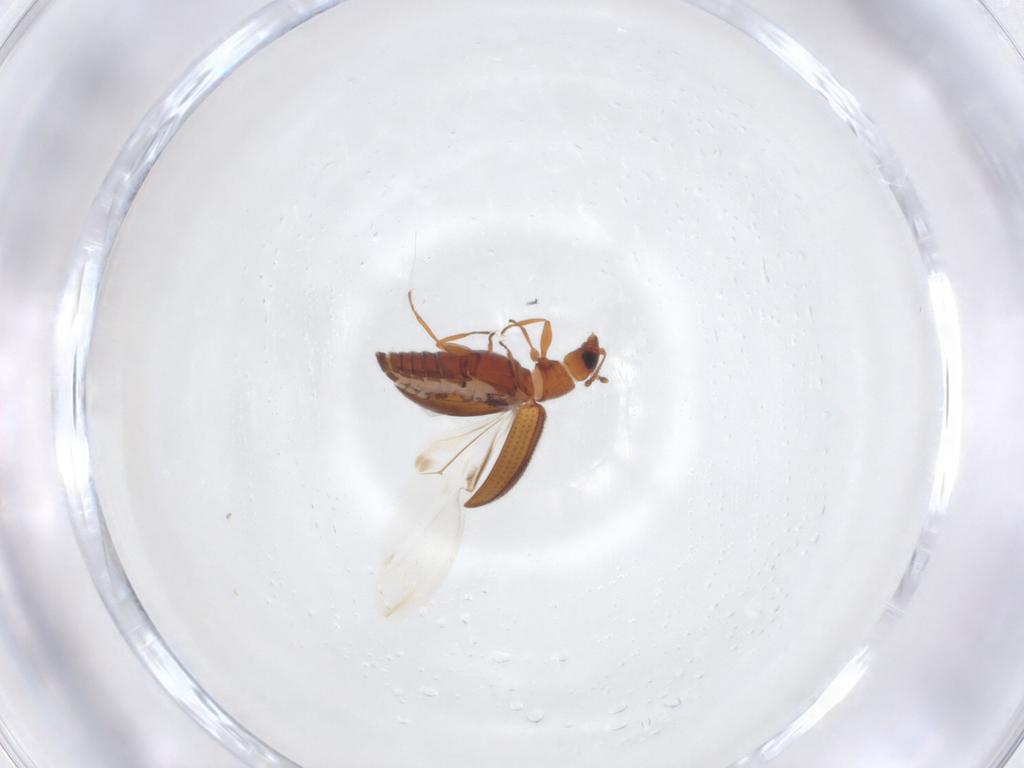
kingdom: Animalia
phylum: Arthropoda
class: Insecta
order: Coleoptera
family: Latridiidae
